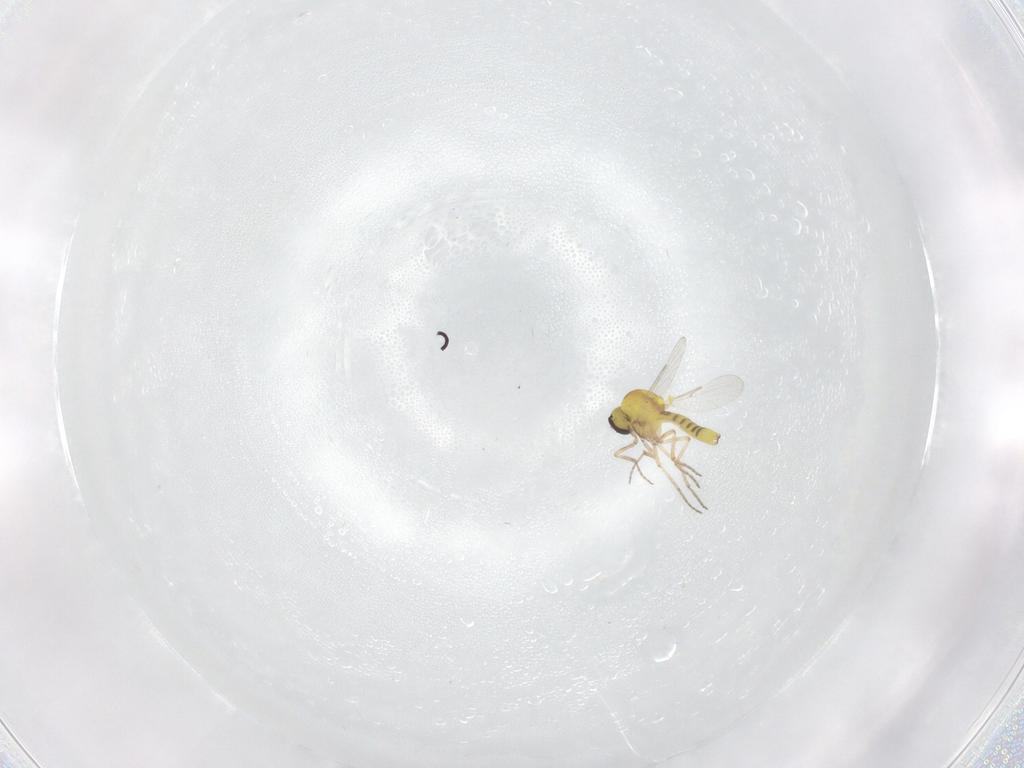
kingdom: Animalia
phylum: Arthropoda
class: Insecta
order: Diptera
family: Ceratopogonidae
